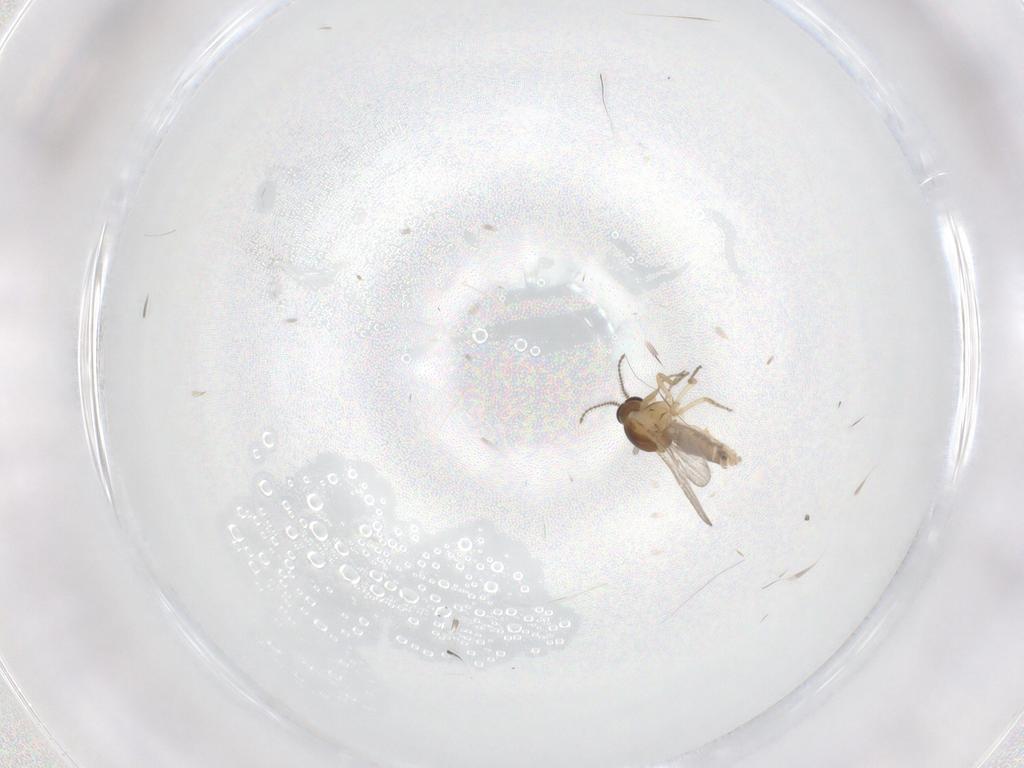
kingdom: Animalia
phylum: Arthropoda
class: Insecta
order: Diptera
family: Ceratopogonidae
